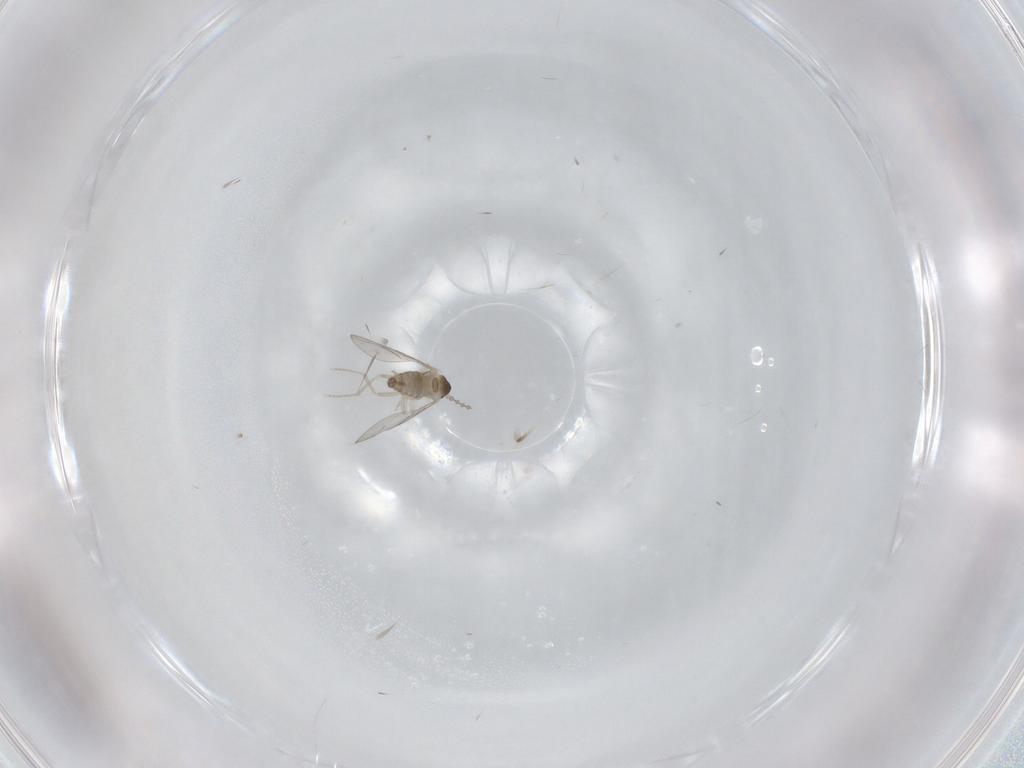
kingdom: Animalia
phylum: Arthropoda
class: Insecta
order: Diptera
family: Cecidomyiidae
